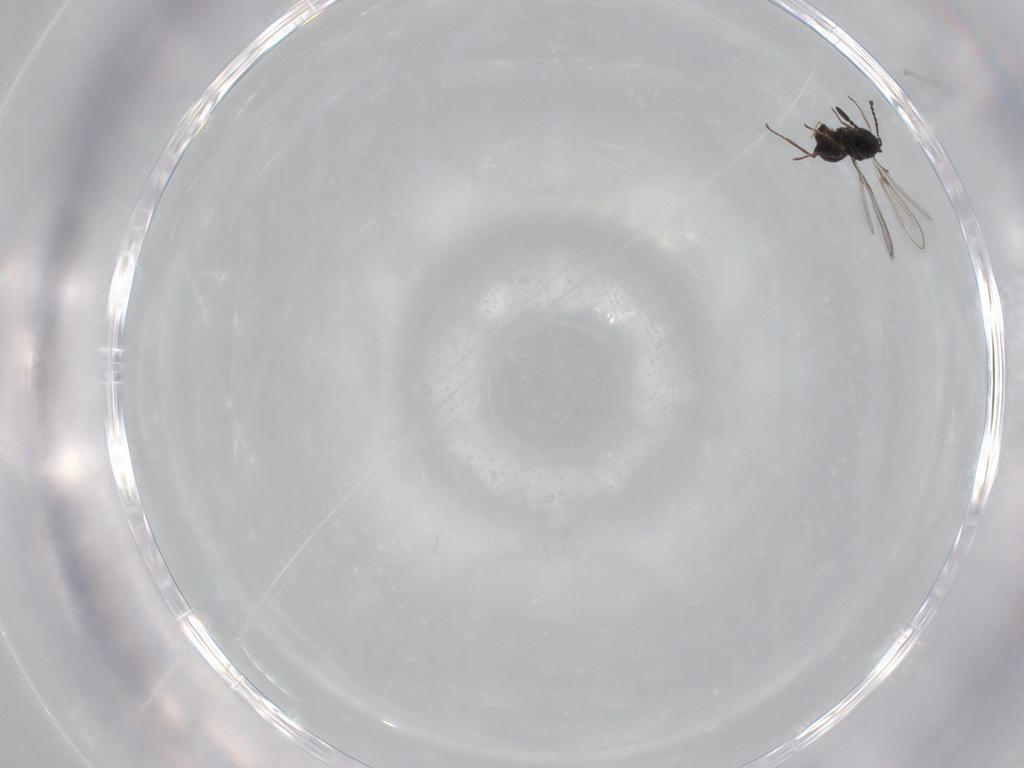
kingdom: Animalia
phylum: Arthropoda
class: Insecta
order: Hymenoptera
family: Mymaridae
